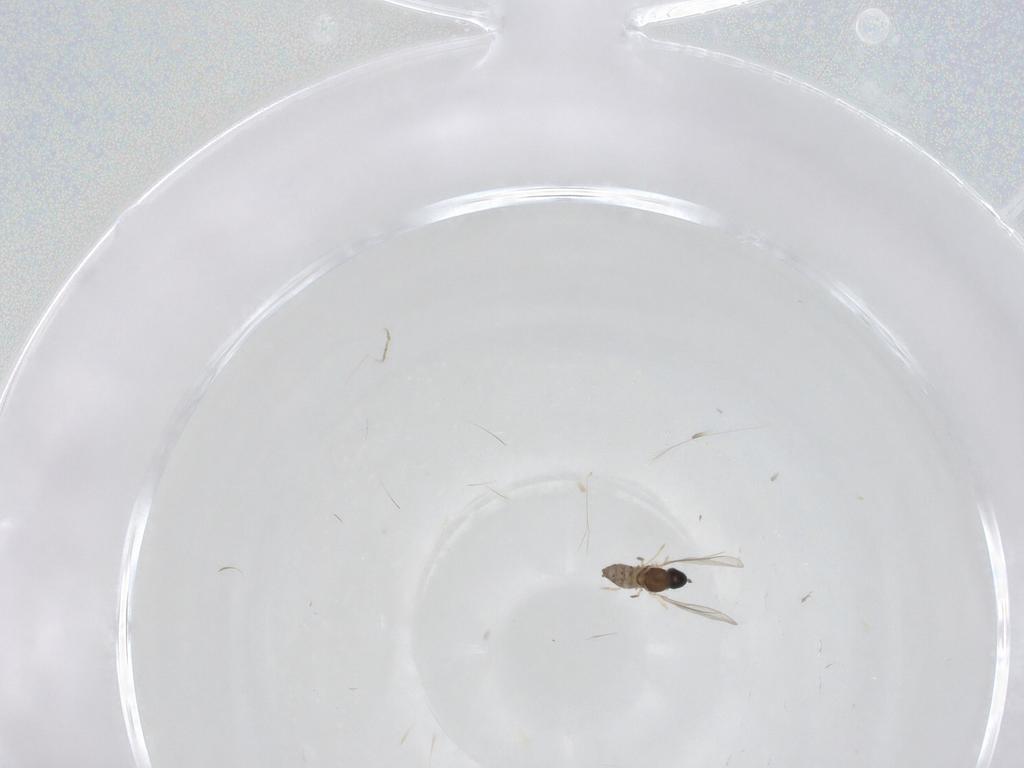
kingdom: Animalia
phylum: Arthropoda
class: Insecta
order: Diptera
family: Cecidomyiidae
